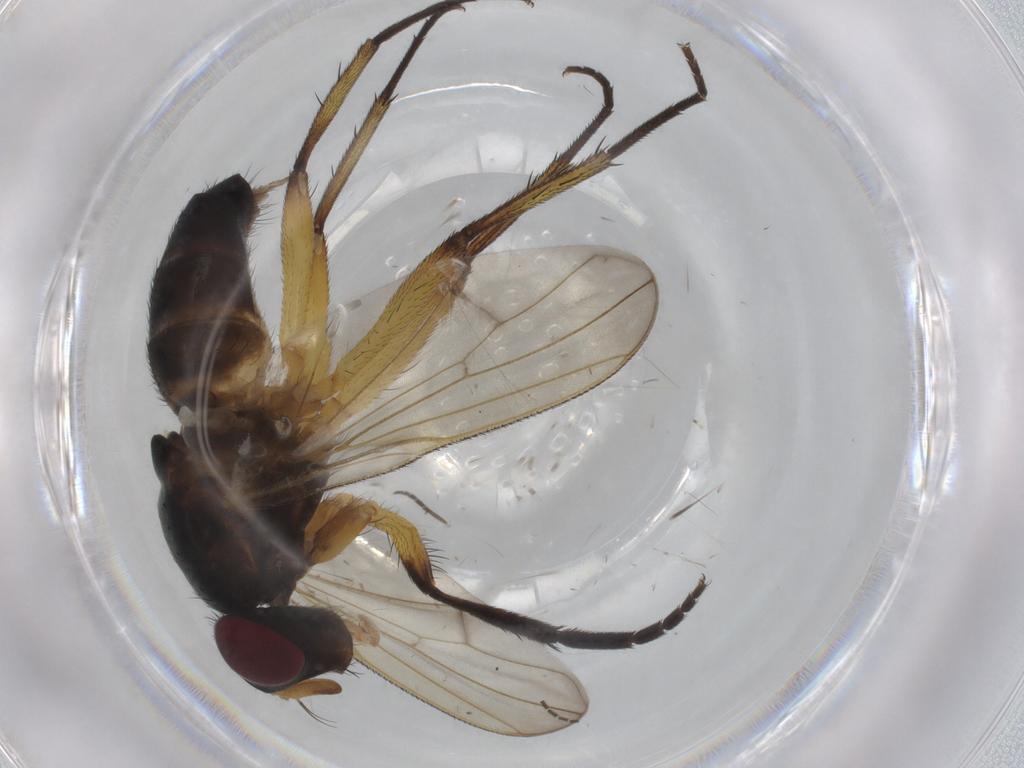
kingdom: Animalia
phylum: Arthropoda
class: Insecta
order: Diptera
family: Tachinidae
